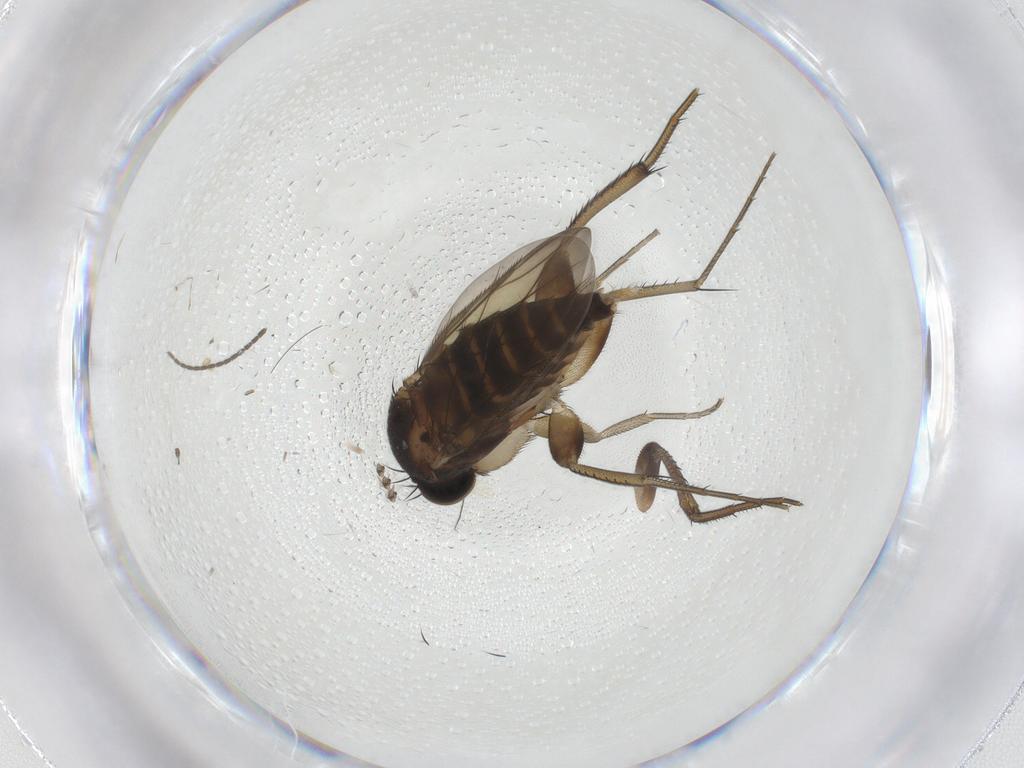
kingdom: Animalia
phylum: Arthropoda
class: Insecta
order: Diptera
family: Phoridae
